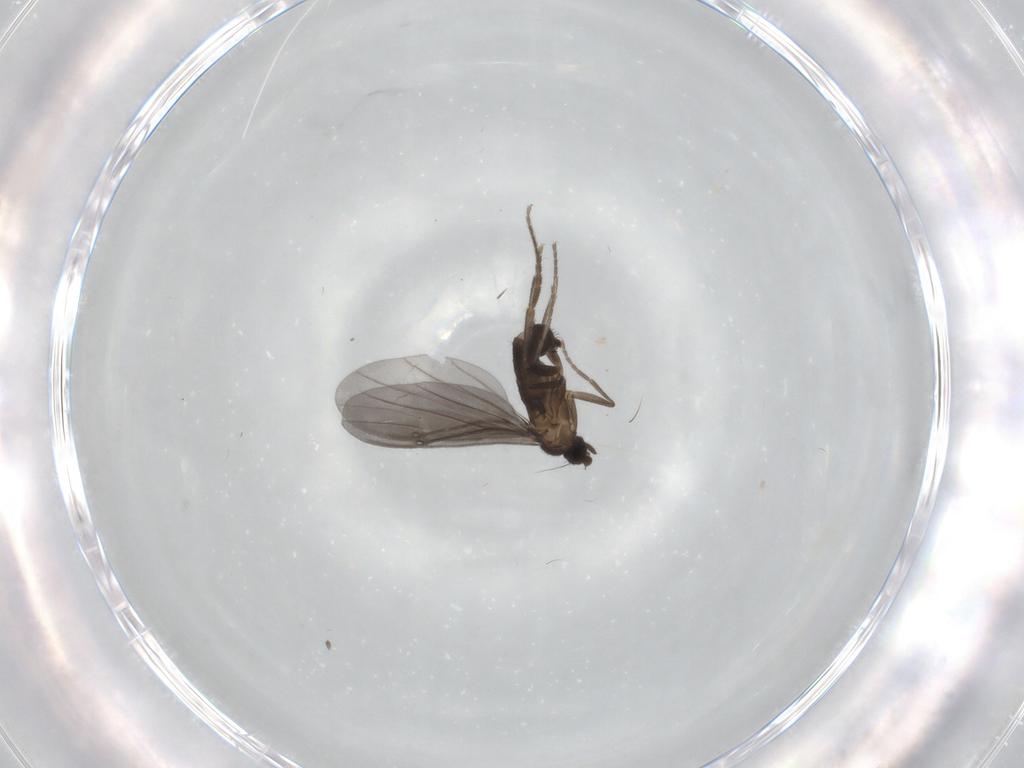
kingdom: Animalia
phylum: Arthropoda
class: Insecta
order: Diptera
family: Phoridae
